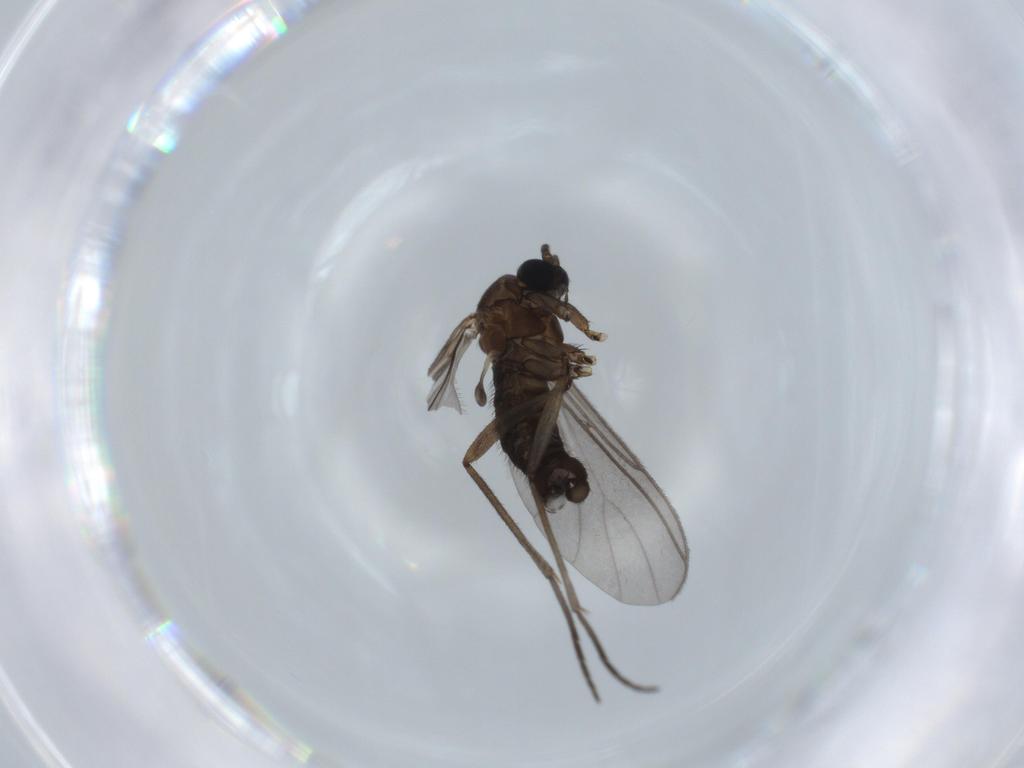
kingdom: Animalia
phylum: Arthropoda
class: Insecta
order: Diptera
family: Sciaridae
